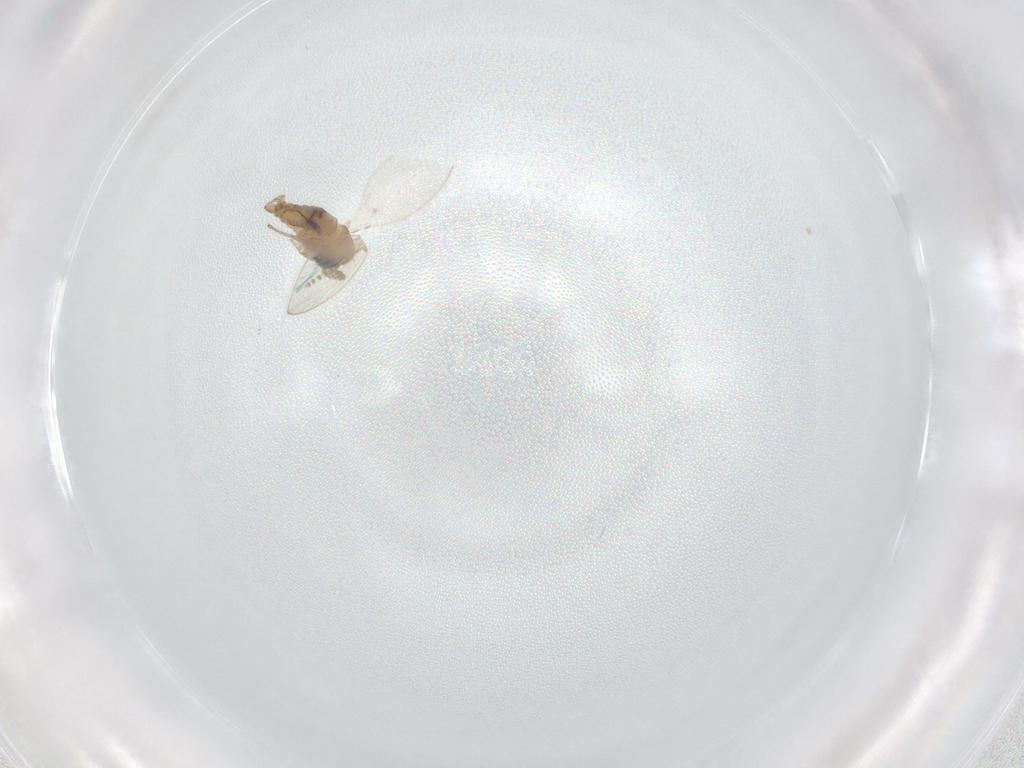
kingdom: Animalia
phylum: Arthropoda
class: Insecta
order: Diptera
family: Psychodidae
